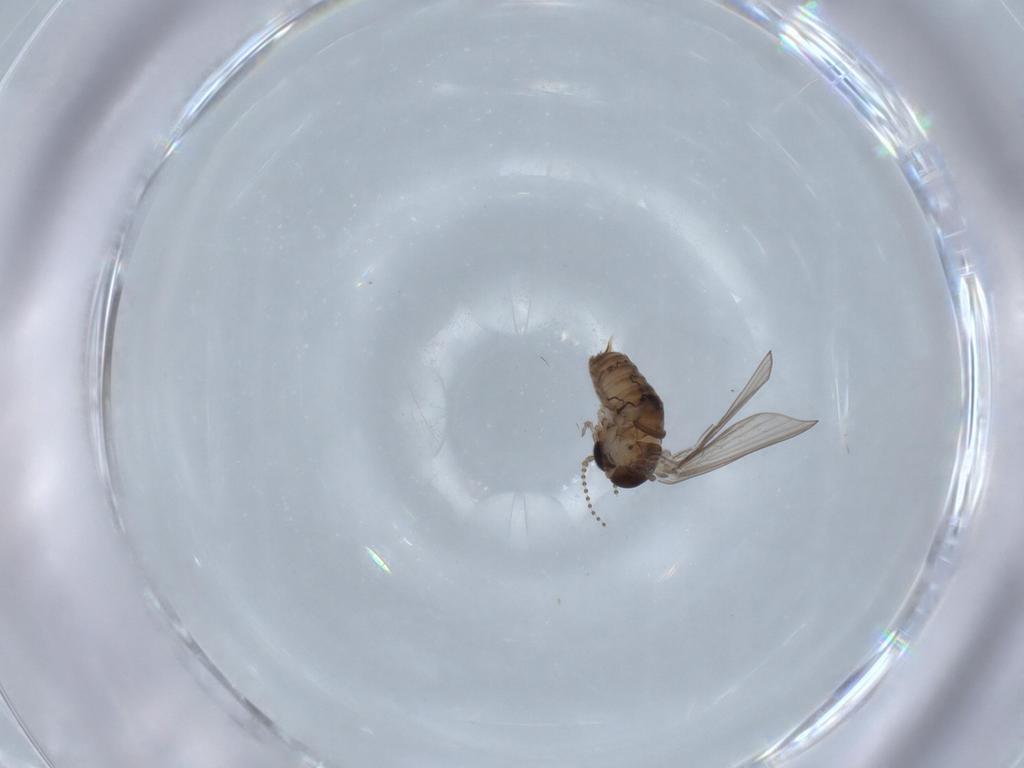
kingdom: Animalia
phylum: Arthropoda
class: Insecta
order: Diptera
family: Psychodidae
